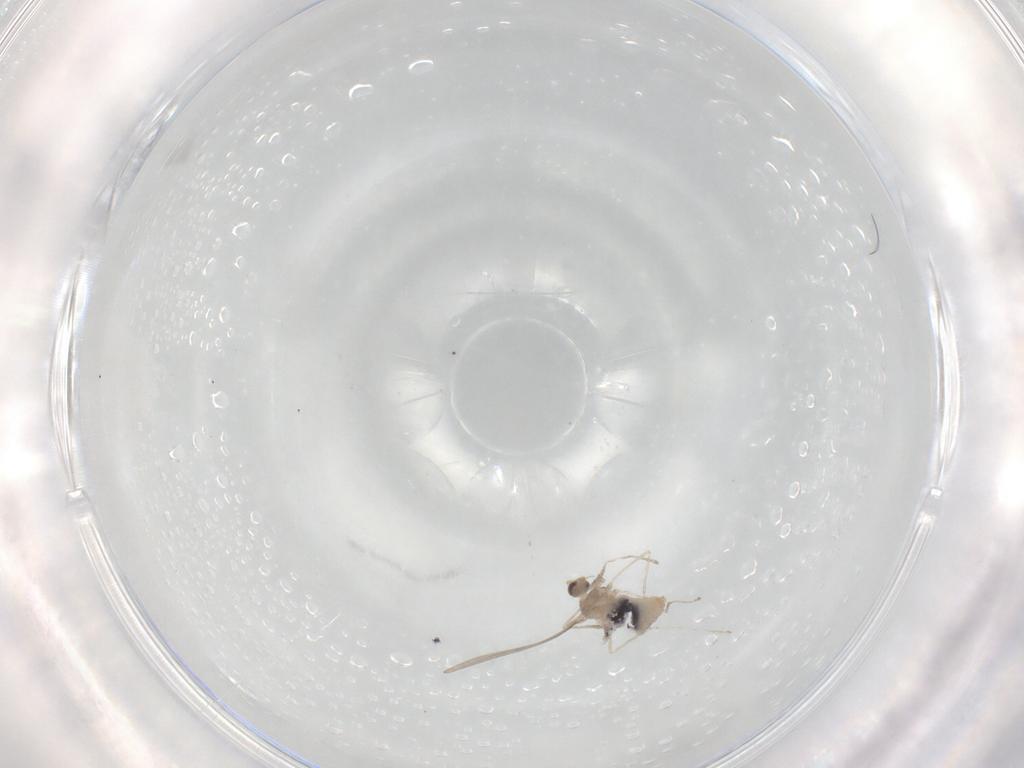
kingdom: Animalia
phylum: Arthropoda
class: Insecta
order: Diptera
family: Cecidomyiidae
